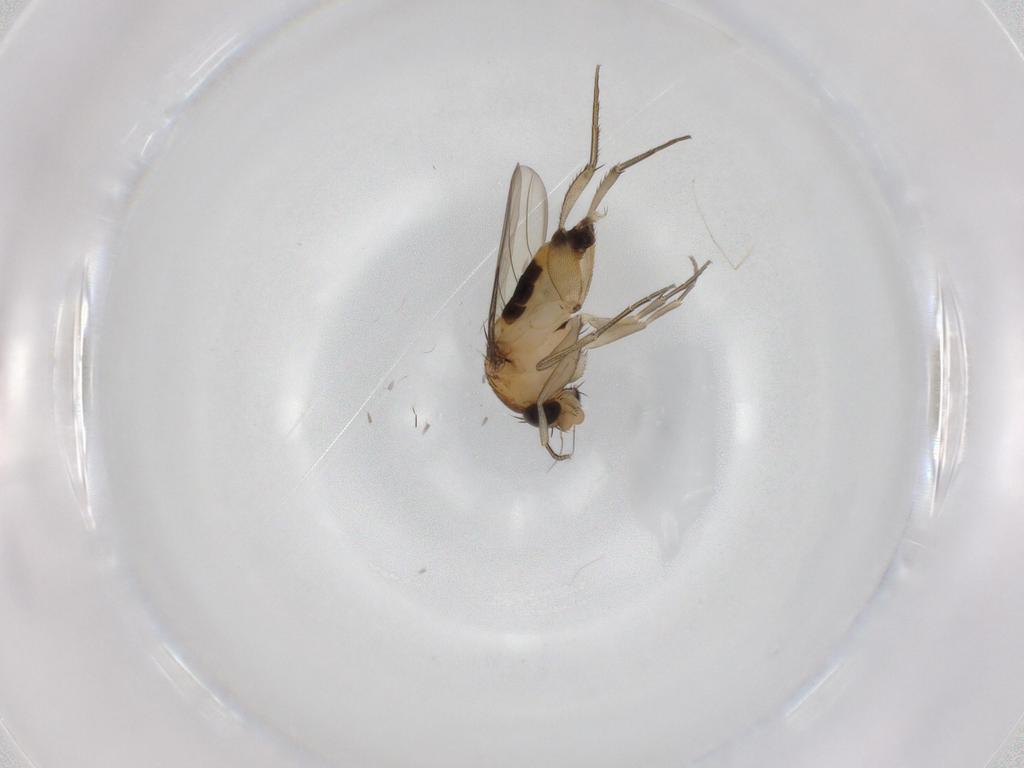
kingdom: Animalia
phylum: Arthropoda
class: Insecta
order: Diptera
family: Phoridae
